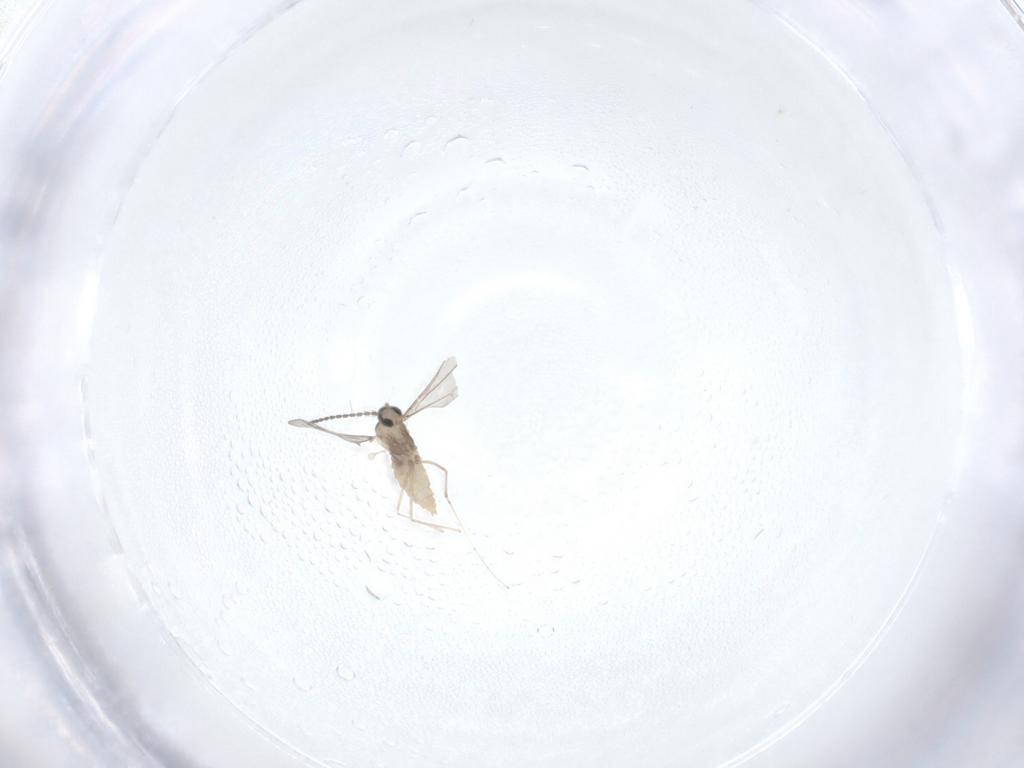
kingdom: Animalia
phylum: Arthropoda
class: Insecta
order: Diptera
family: Cecidomyiidae
